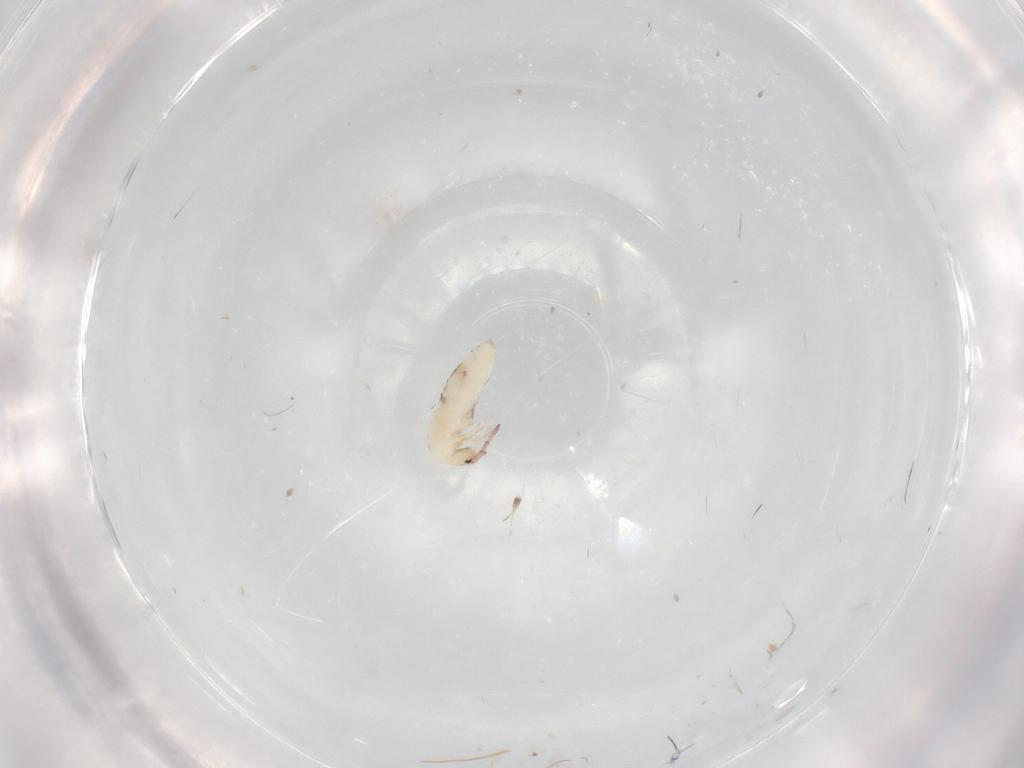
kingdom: Animalia
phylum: Arthropoda
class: Collembola
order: Entomobryomorpha
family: Entomobryidae
